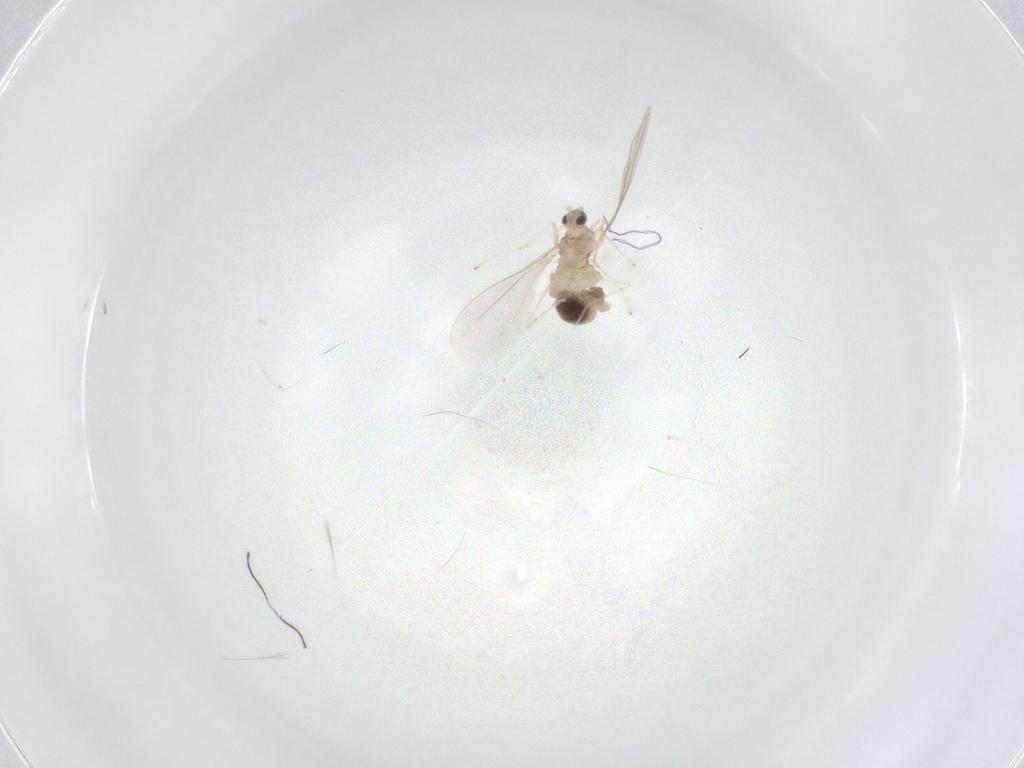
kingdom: Animalia
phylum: Arthropoda
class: Insecta
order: Diptera
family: Cecidomyiidae
